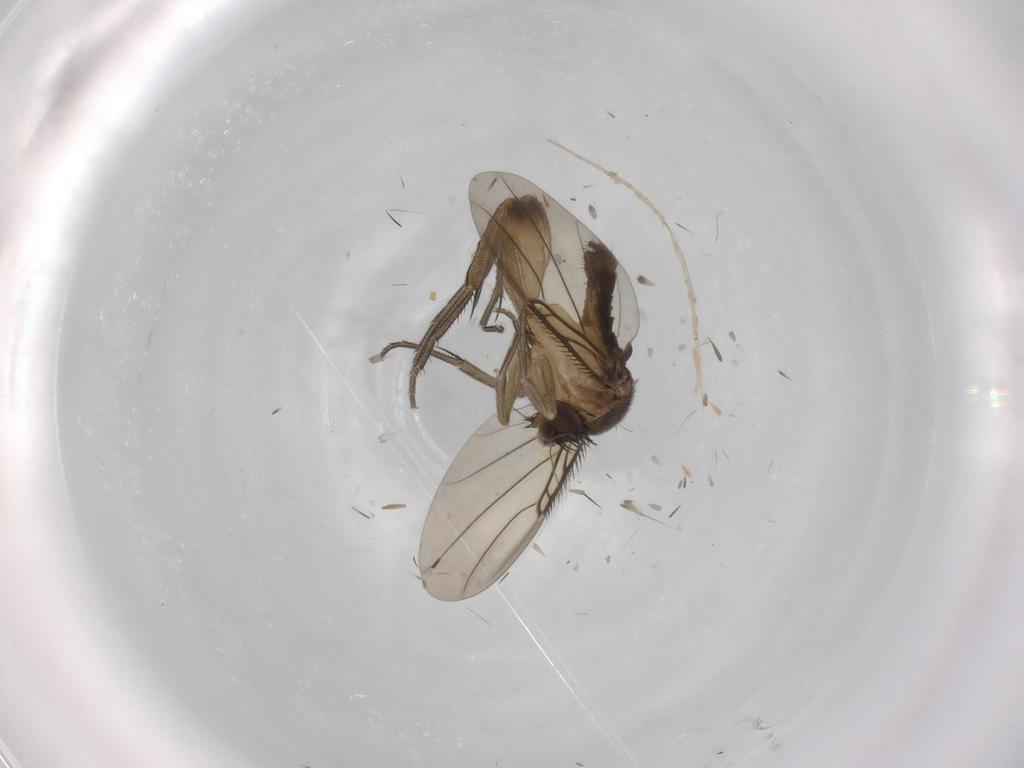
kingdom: Animalia
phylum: Arthropoda
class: Insecta
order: Diptera
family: Phoridae
